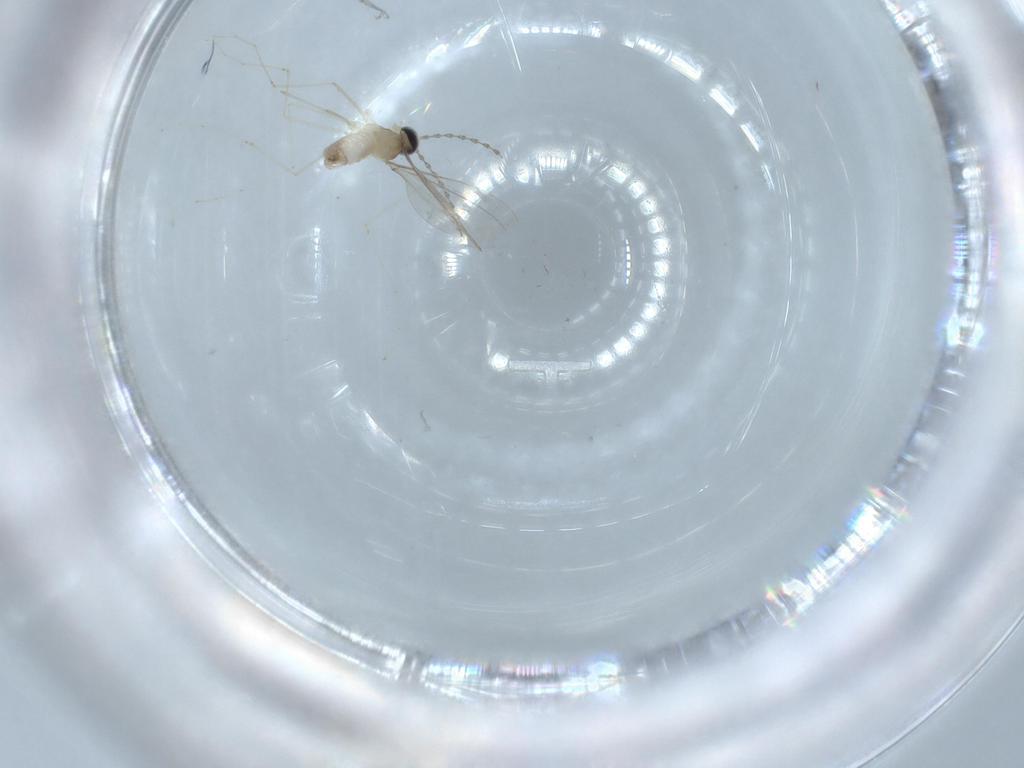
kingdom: Animalia
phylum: Arthropoda
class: Insecta
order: Diptera
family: Cecidomyiidae
